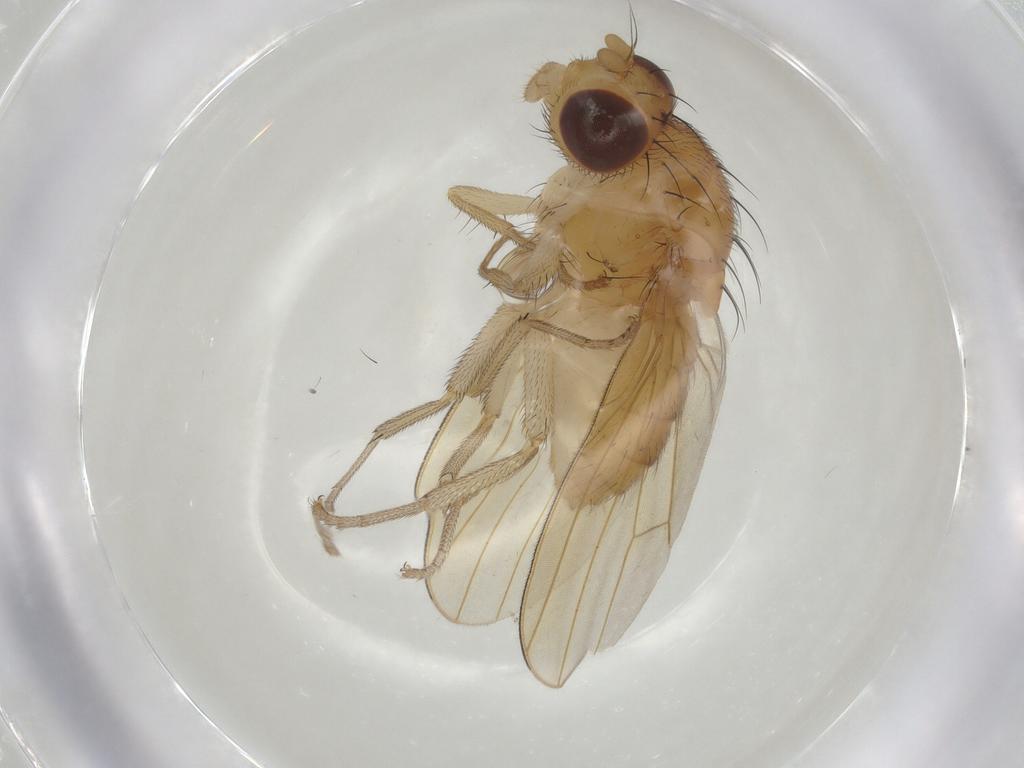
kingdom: Animalia
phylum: Arthropoda
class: Insecta
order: Diptera
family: Lauxaniidae
